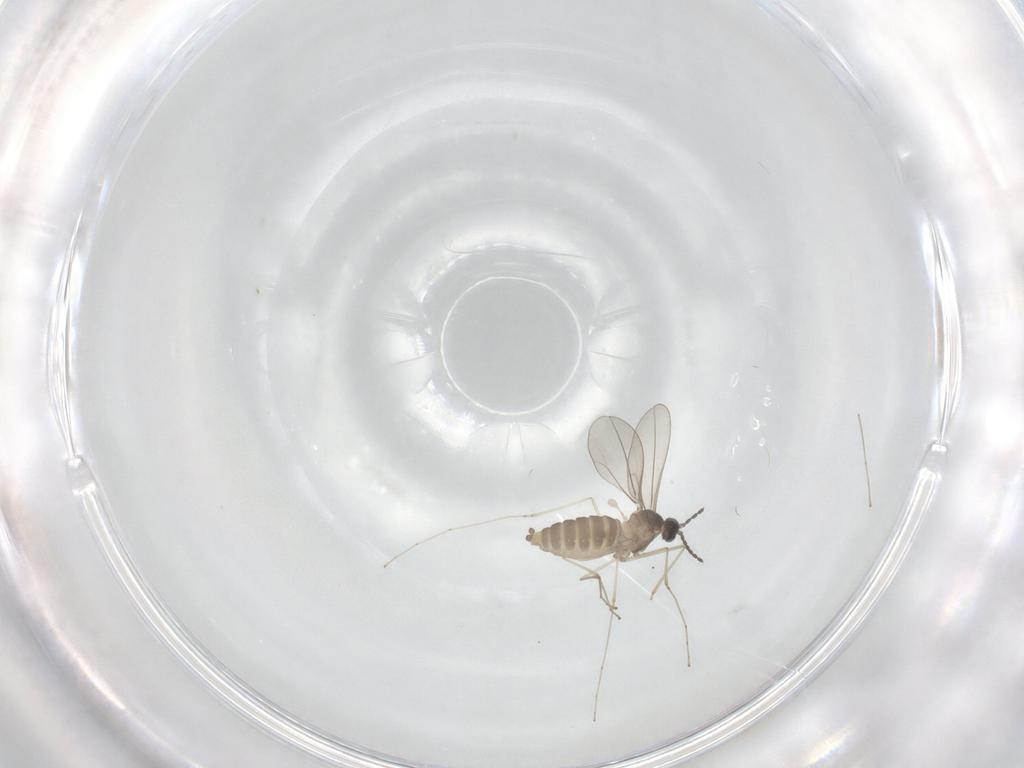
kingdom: Animalia
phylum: Arthropoda
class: Insecta
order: Diptera
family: Cecidomyiidae
